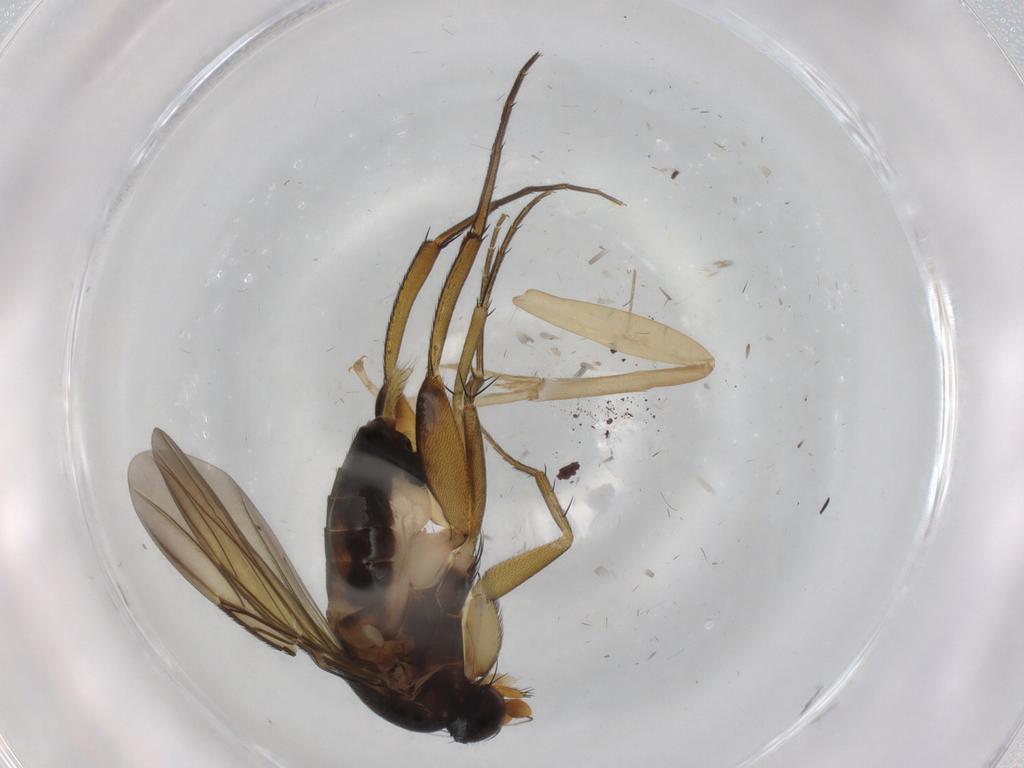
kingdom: Animalia
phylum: Arthropoda
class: Insecta
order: Diptera
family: Phoridae
